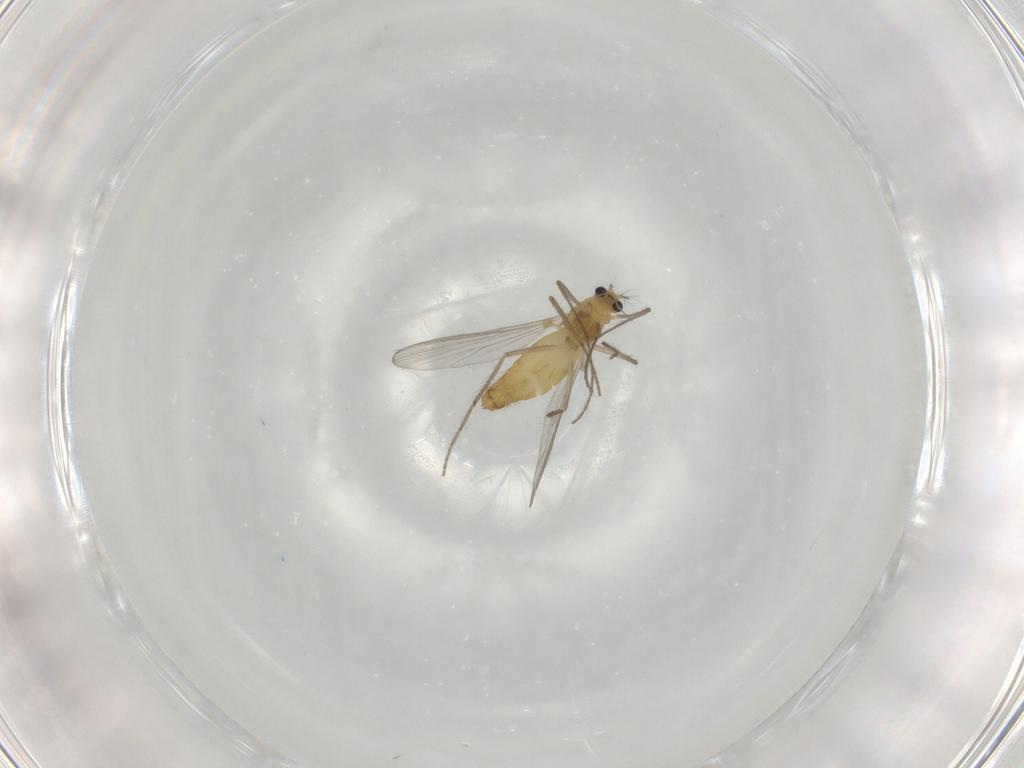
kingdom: Animalia
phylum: Arthropoda
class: Insecta
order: Diptera
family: Chironomidae
